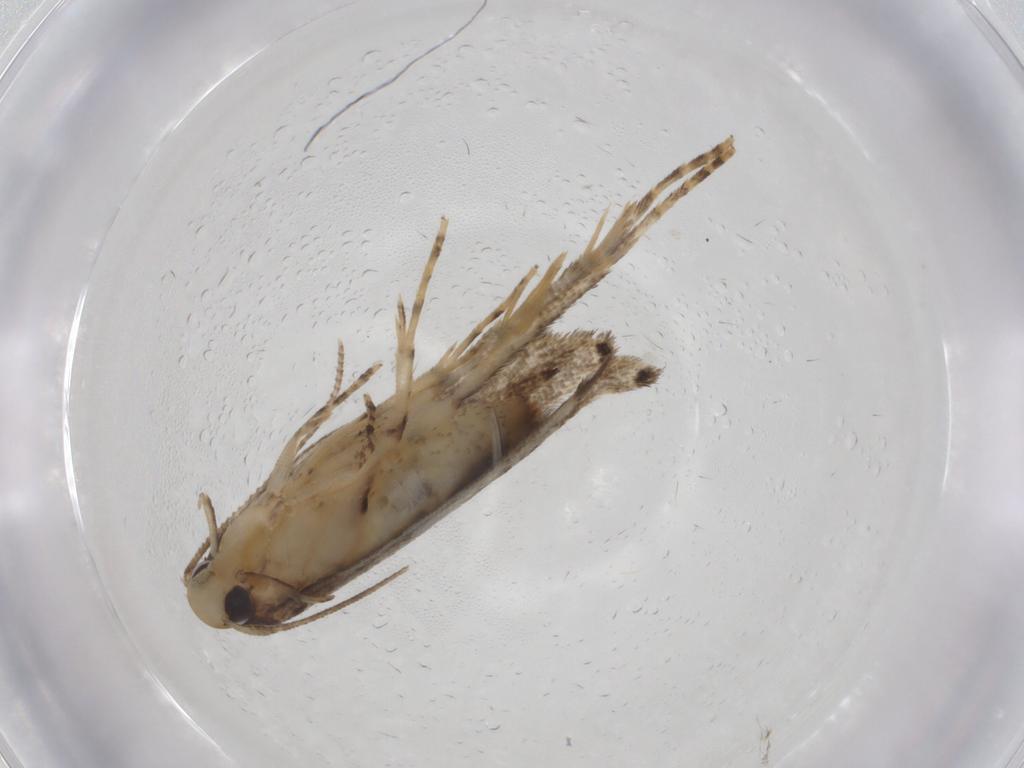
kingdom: Animalia
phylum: Arthropoda
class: Insecta
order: Lepidoptera
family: Cosmopterigidae
